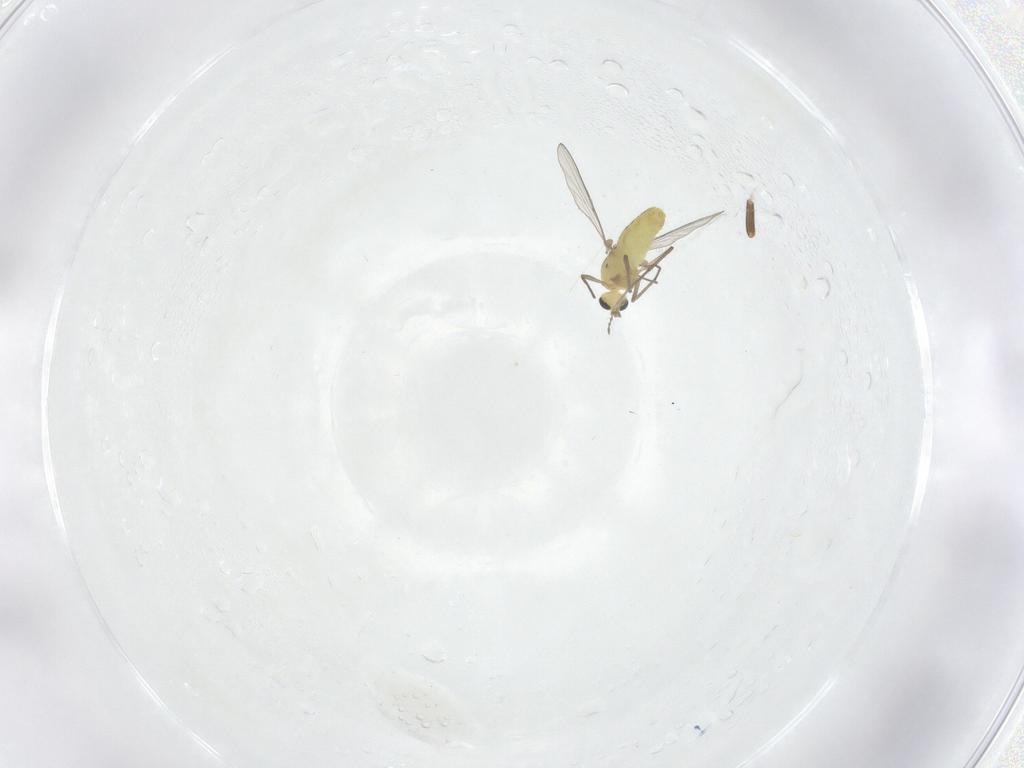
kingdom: Animalia
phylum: Arthropoda
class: Insecta
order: Diptera
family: Chironomidae
